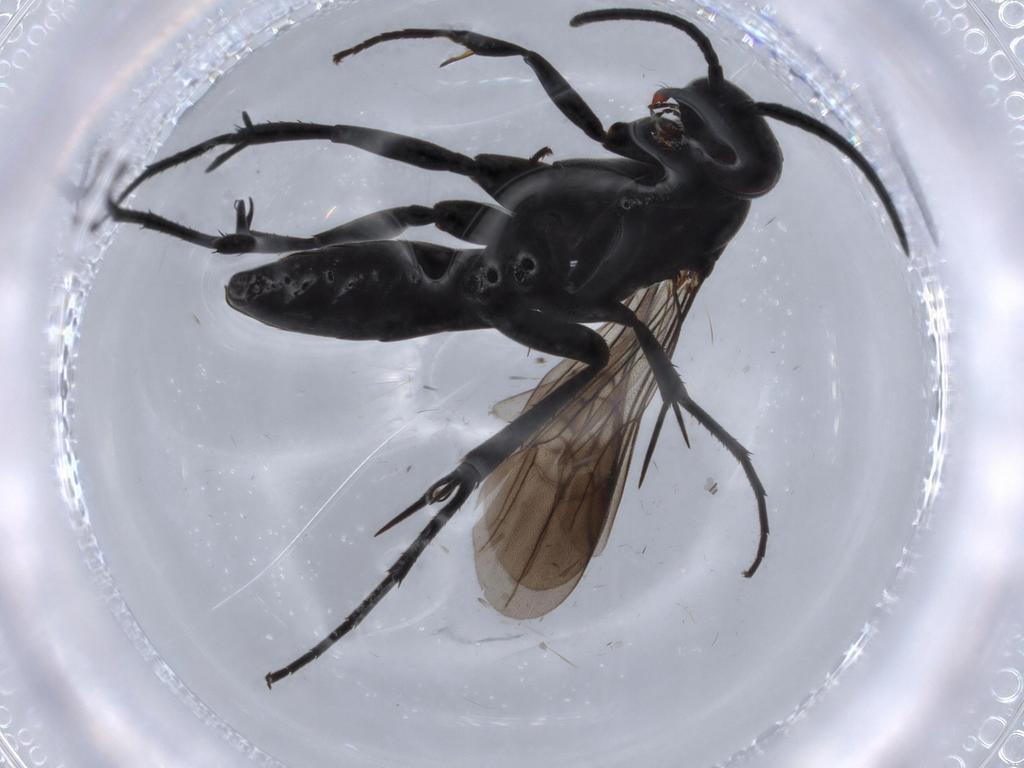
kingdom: Animalia
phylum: Arthropoda
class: Insecta
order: Hymenoptera
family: Pompilidae
